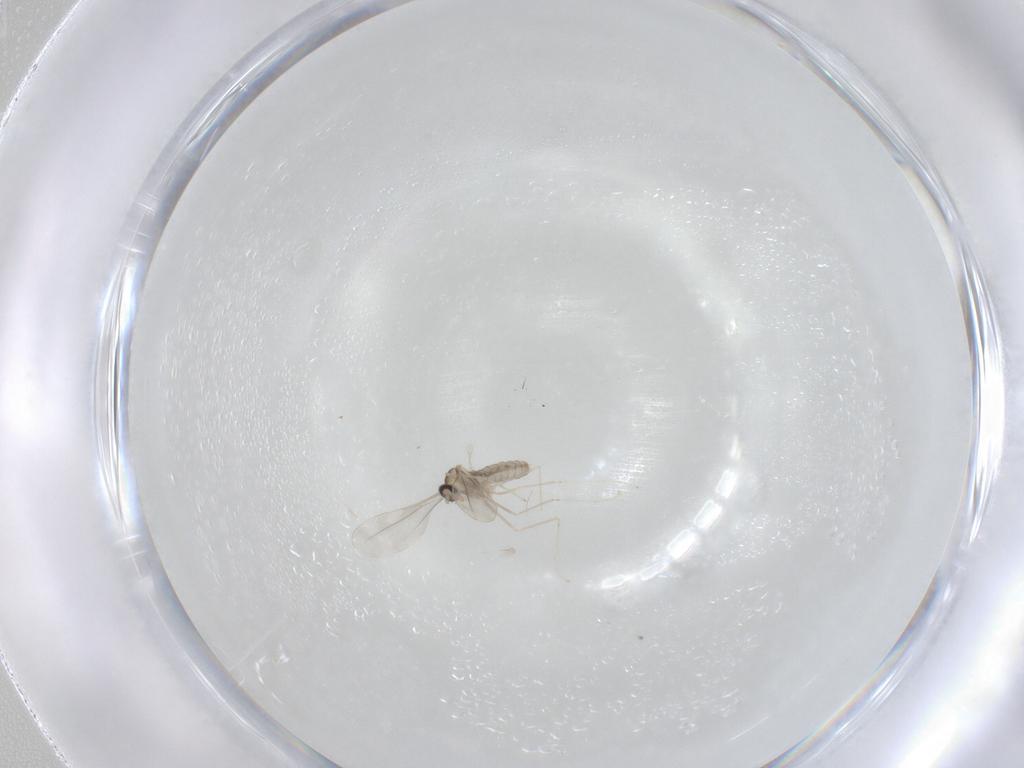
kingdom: Animalia
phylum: Arthropoda
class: Insecta
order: Diptera
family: Cecidomyiidae
